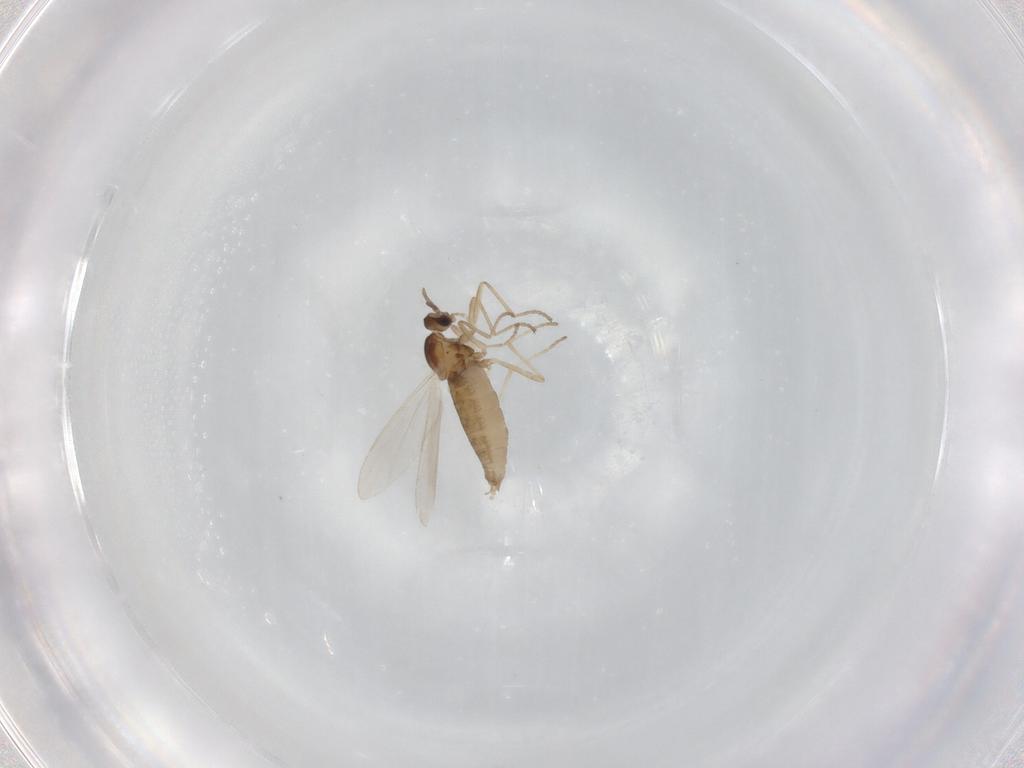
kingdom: Animalia
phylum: Arthropoda
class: Insecta
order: Diptera
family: Cecidomyiidae
